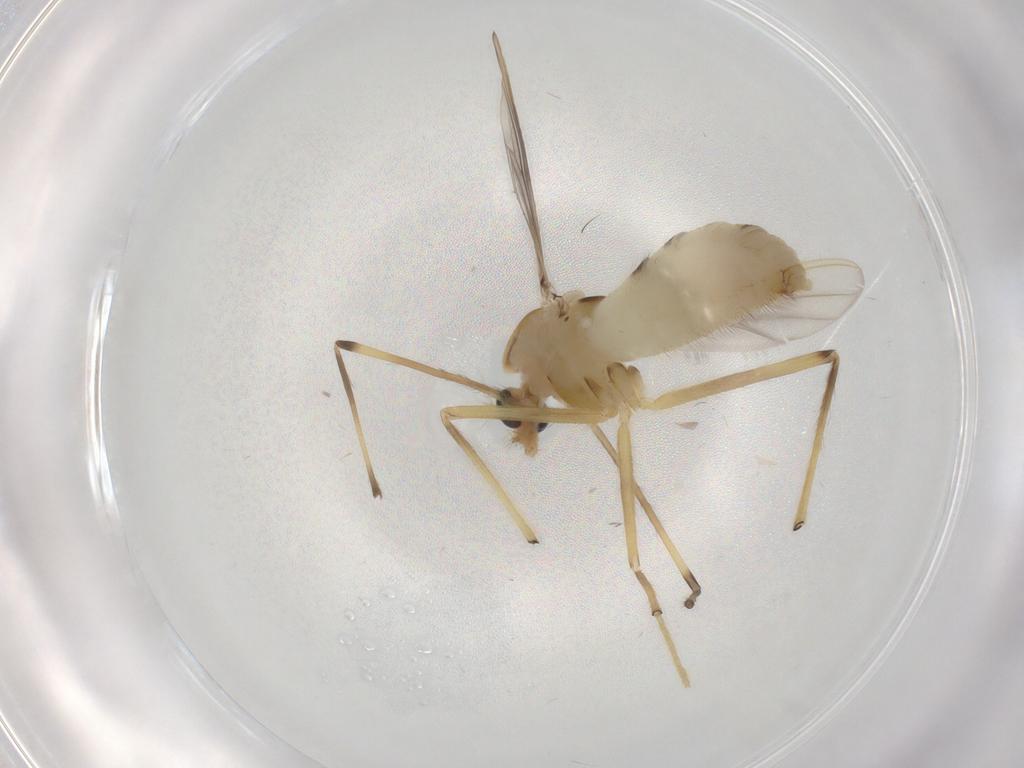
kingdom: Animalia
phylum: Arthropoda
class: Insecta
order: Diptera
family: Chironomidae
